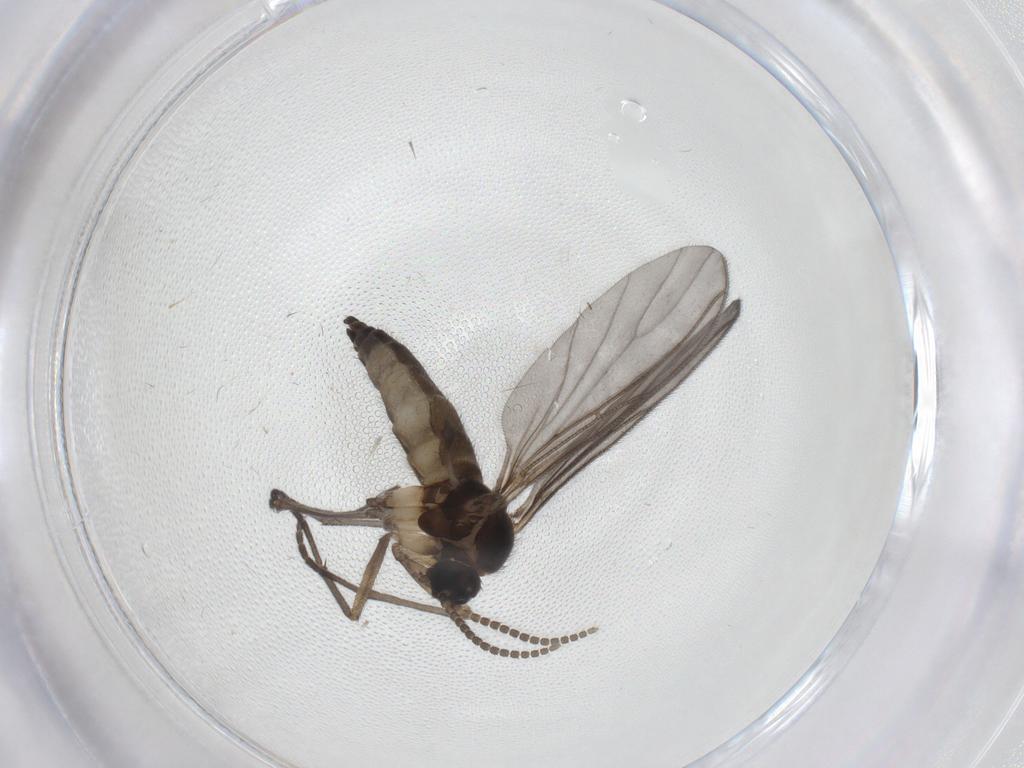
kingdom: Animalia
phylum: Arthropoda
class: Insecta
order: Diptera
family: Sciaridae
